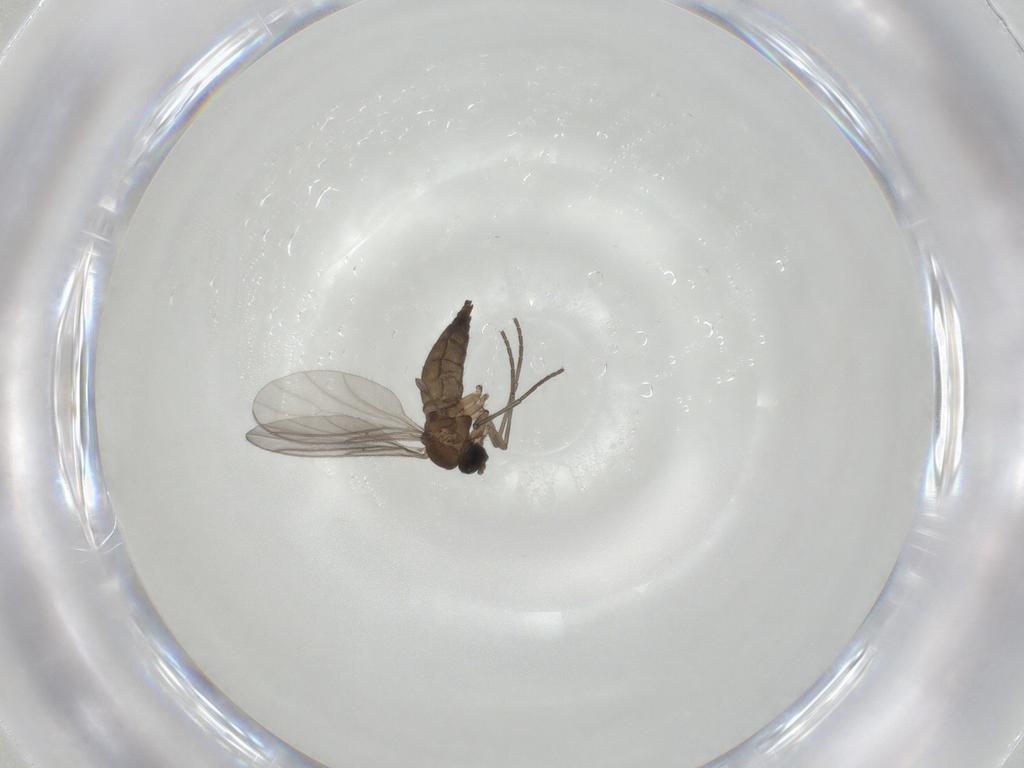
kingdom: Animalia
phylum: Arthropoda
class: Insecta
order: Diptera
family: Sciaridae
